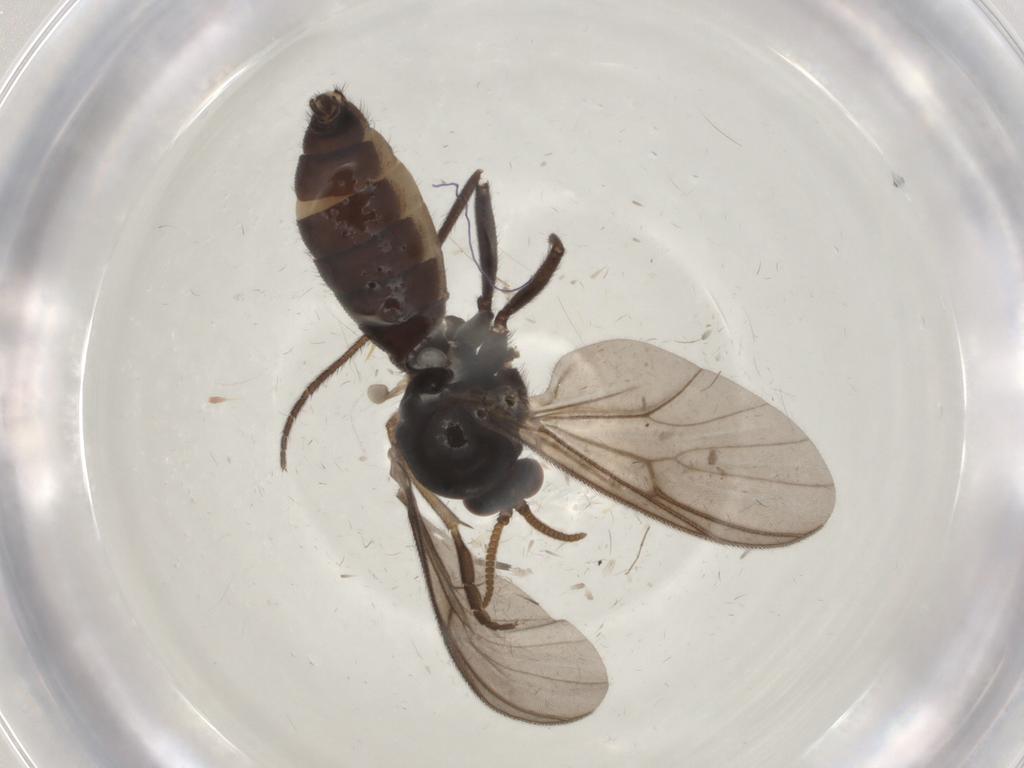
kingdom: Animalia
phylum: Arthropoda
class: Insecta
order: Diptera
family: Mycetophilidae
